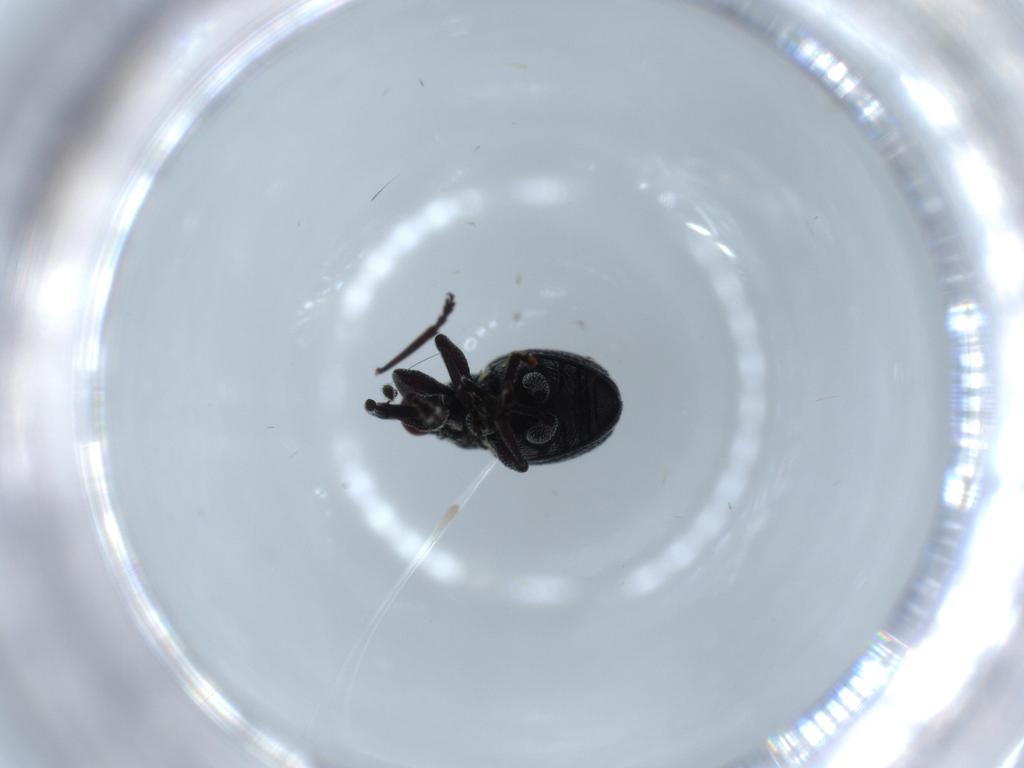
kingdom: Animalia
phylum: Arthropoda
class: Insecta
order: Coleoptera
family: Brentidae
